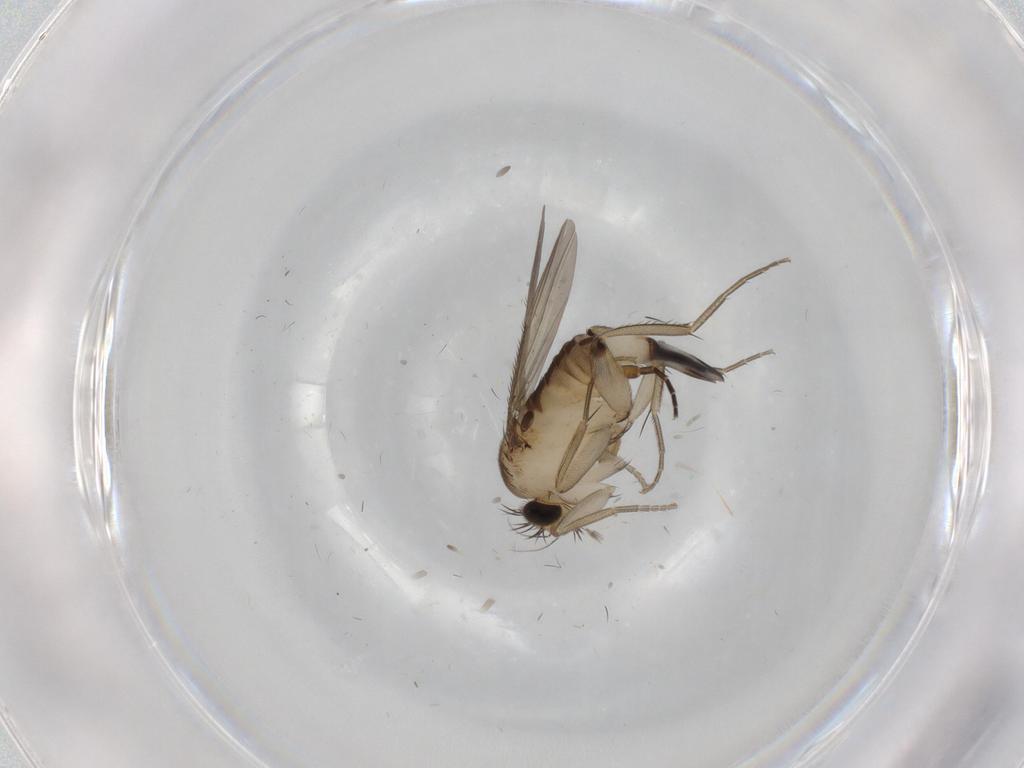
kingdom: Animalia
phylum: Arthropoda
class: Insecta
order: Diptera
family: Phoridae
